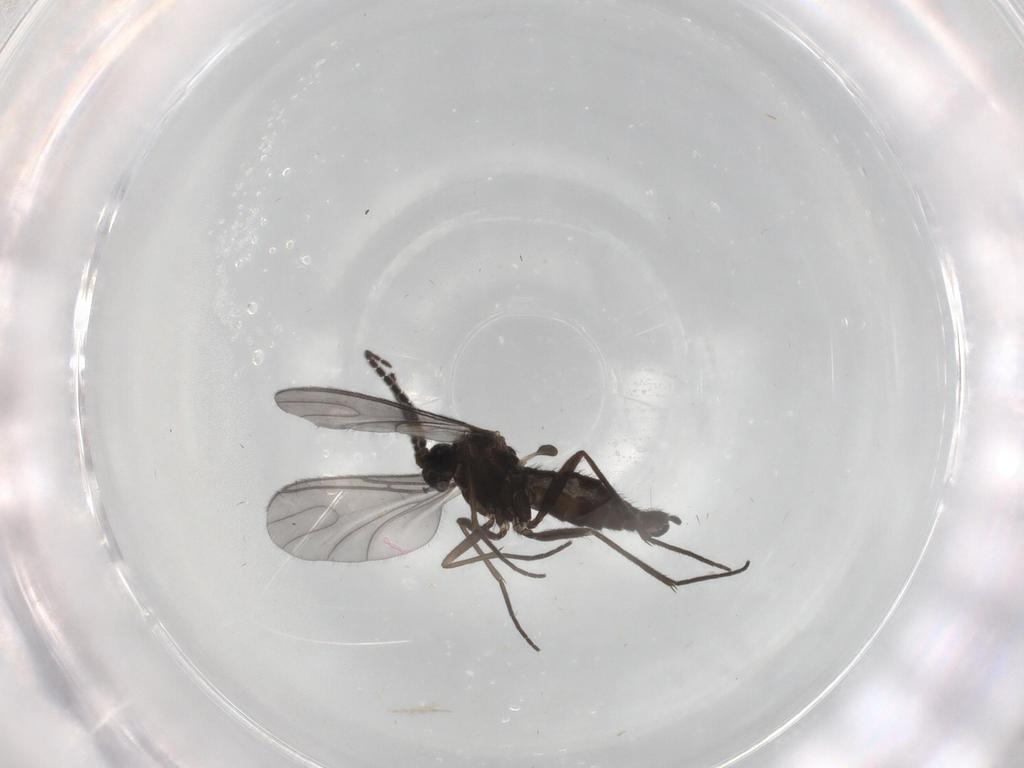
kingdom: Animalia
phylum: Arthropoda
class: Insecta
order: Diptera
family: Sciaridae
